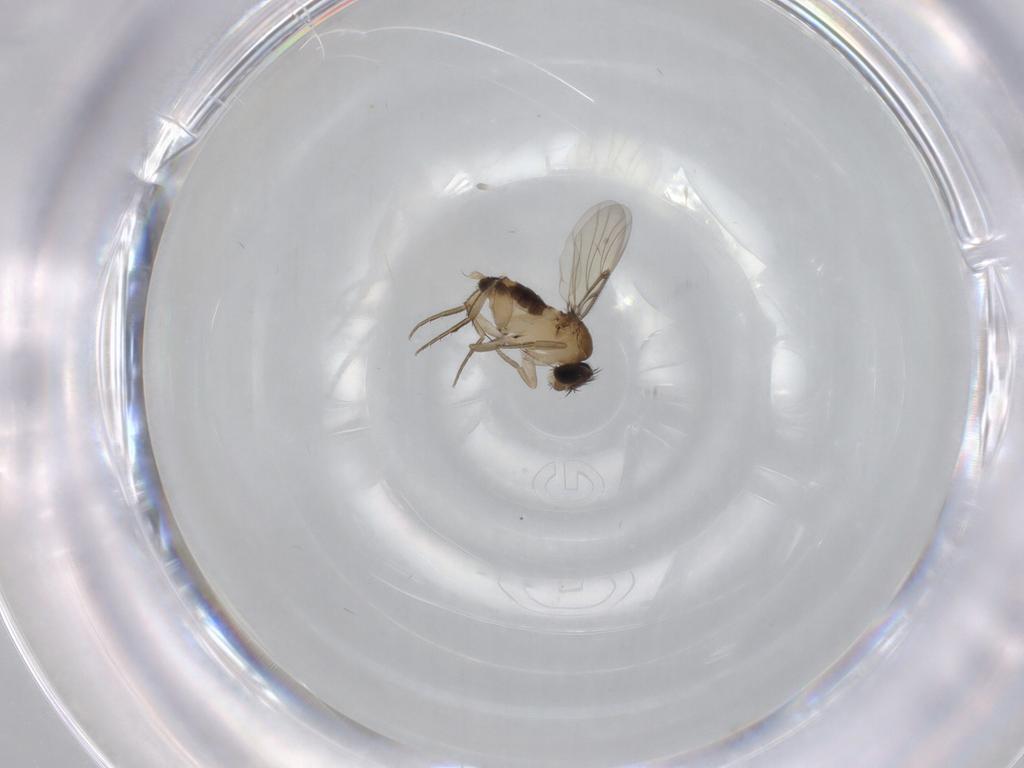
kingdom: Animalia
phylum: Arthropoda
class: Insecta
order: Diptera
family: Phoridae
